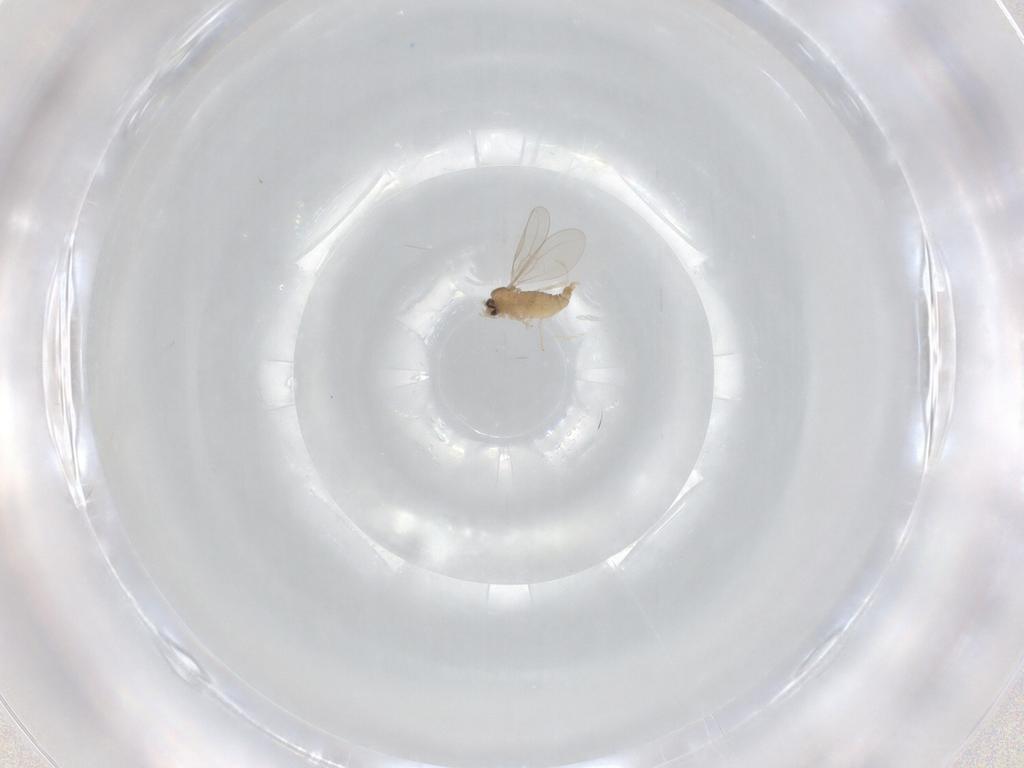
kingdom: Animalia
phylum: Arthropoda
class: Insecta
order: Diptera
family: Cecidomyiidae
